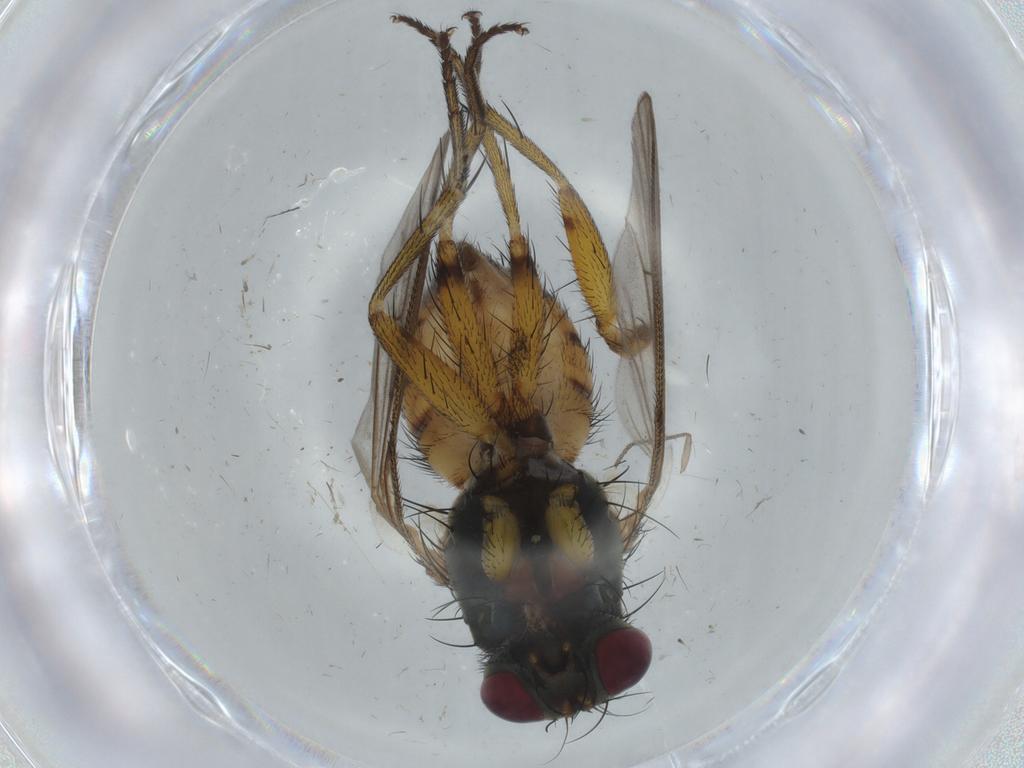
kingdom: Animalia
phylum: Arthropoda
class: Insecta
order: Diptera
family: Muscidae
